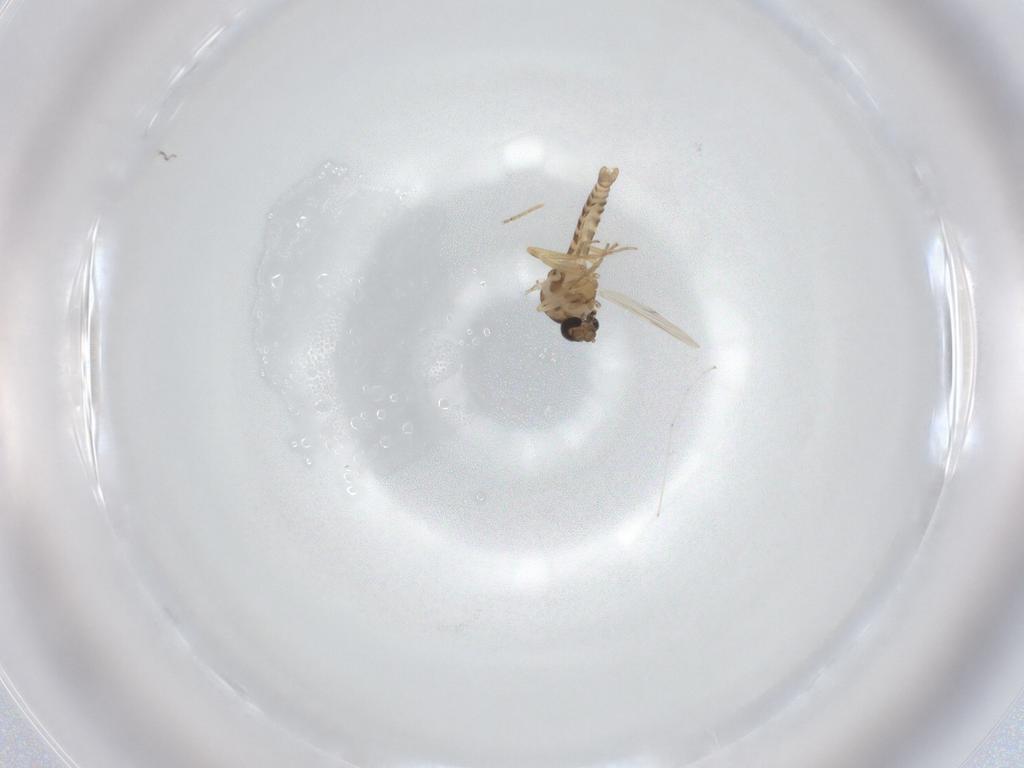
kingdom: Animalia
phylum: Arthropoda
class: Insecta
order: Diptera
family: Ceratopogonidae
